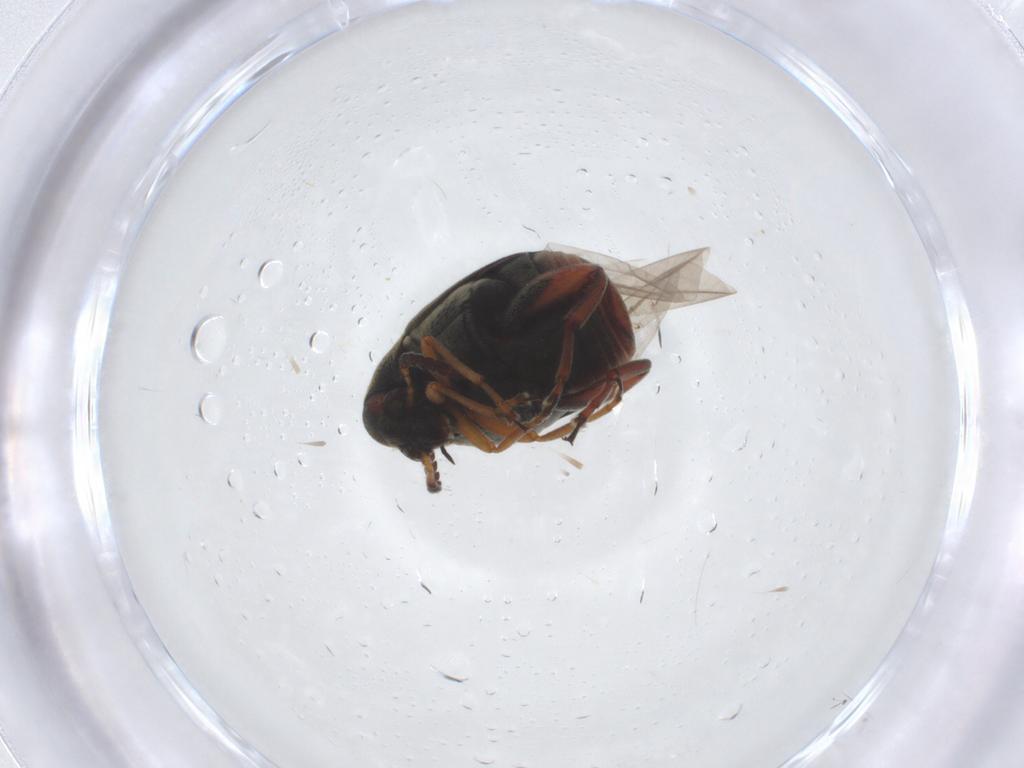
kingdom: Animalia
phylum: Arthropoda
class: Insecta
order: Coleoptera
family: Chrysomelidae
